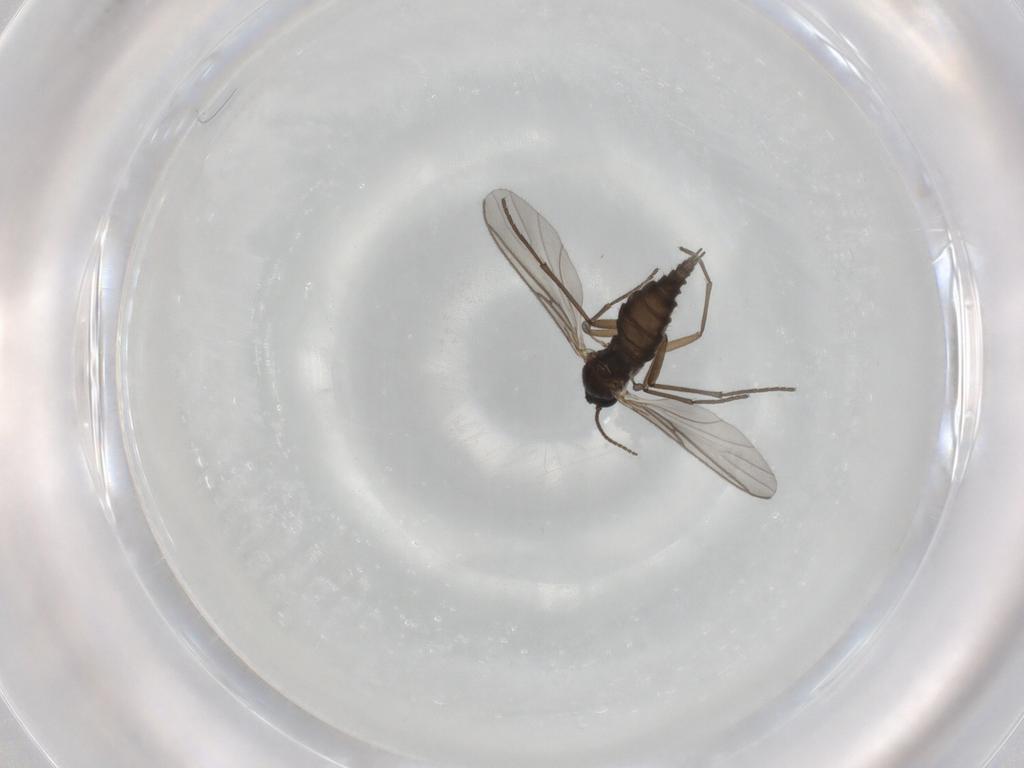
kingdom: Animalia
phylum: Arthropoda
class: Insecta
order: Diptera
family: Sciaridae
